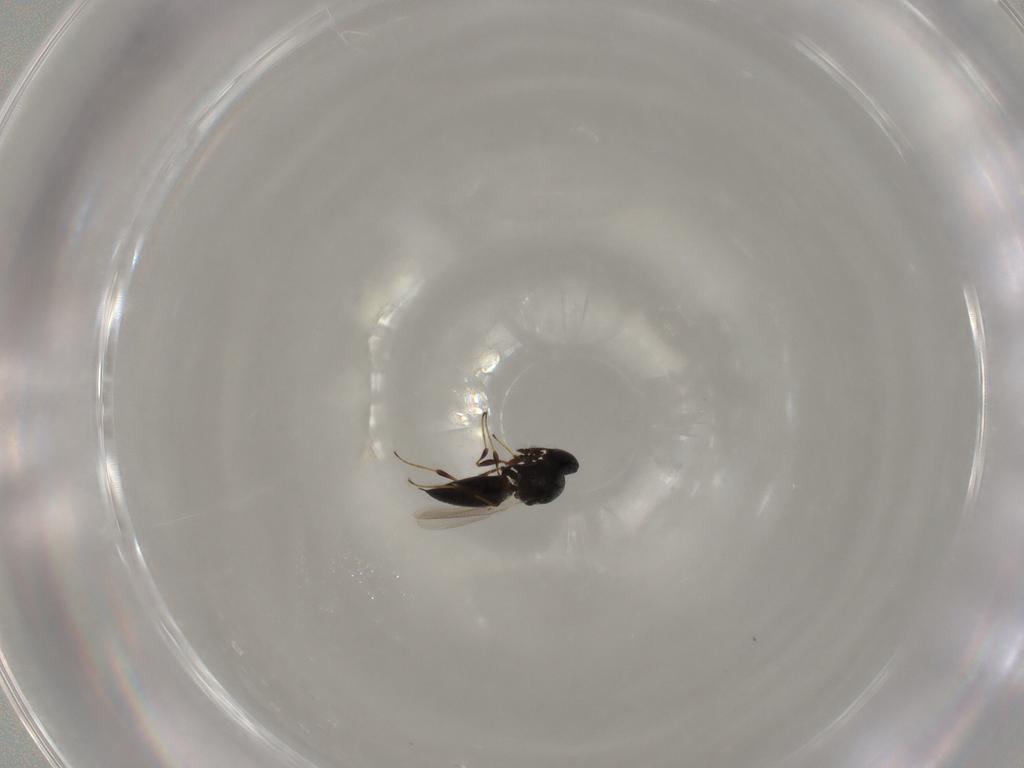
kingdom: Animalia
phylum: Arthropoda
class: Insecta
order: Hymenoptera
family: Platygastridae
